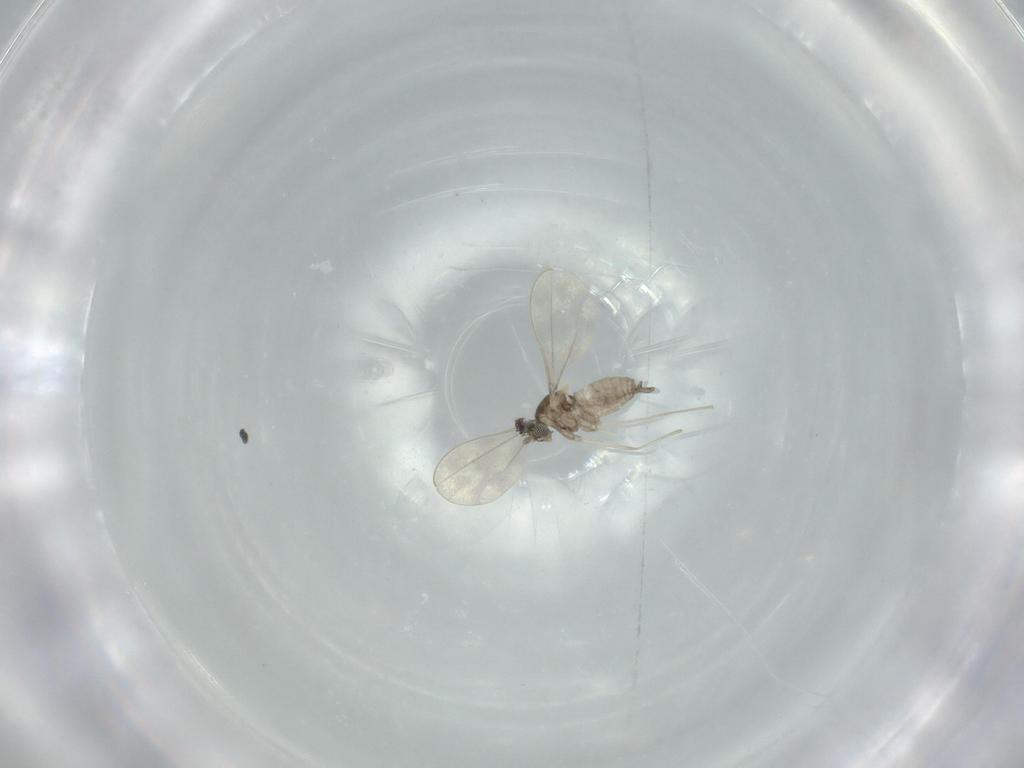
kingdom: Animalia
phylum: Arthropoda
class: Insecta
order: Diptera
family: Cecidomyiidae
